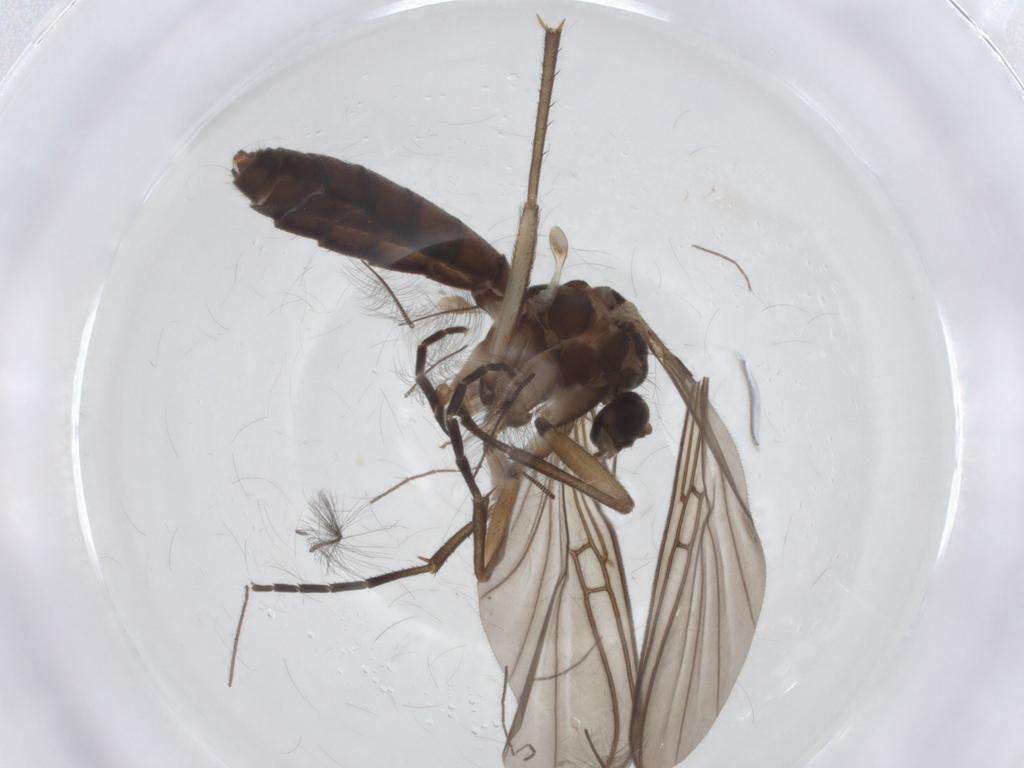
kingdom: Animalia
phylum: Arthropoda
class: Insecta
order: Diptera
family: Mycetophilidae
